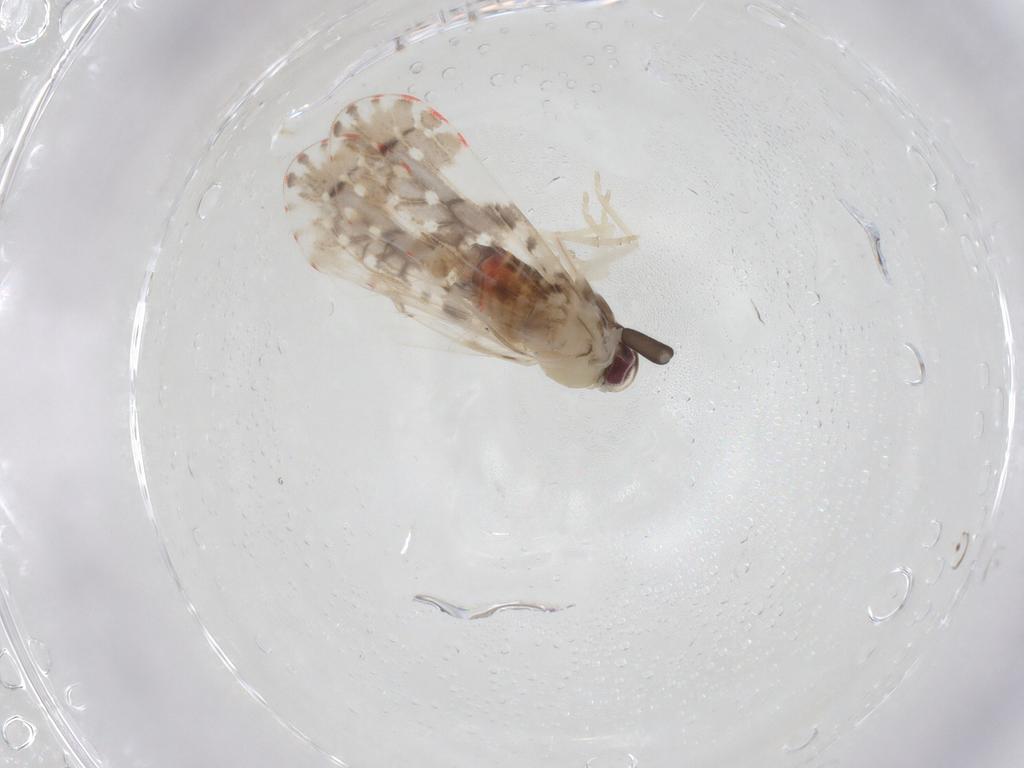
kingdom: Animalia
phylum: Arthropoda
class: Insecta
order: Hemiptera
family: Derbidae
